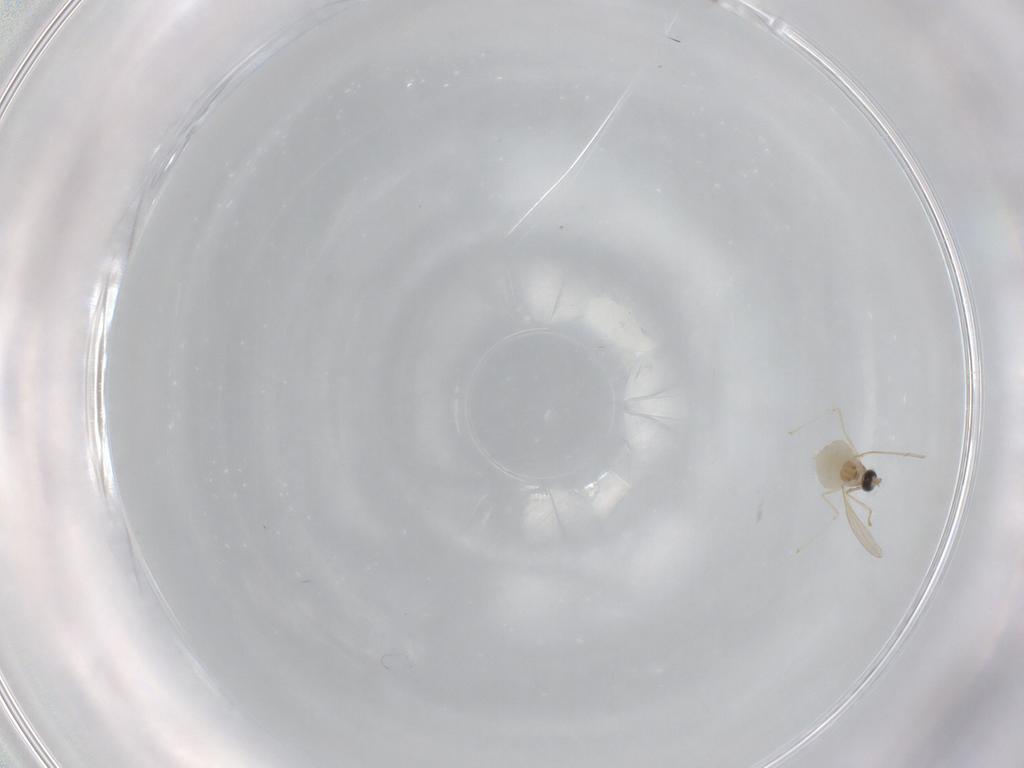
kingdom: Animalia
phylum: Arthropoda
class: Insecta
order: Diptera
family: Cecidomyiidae
